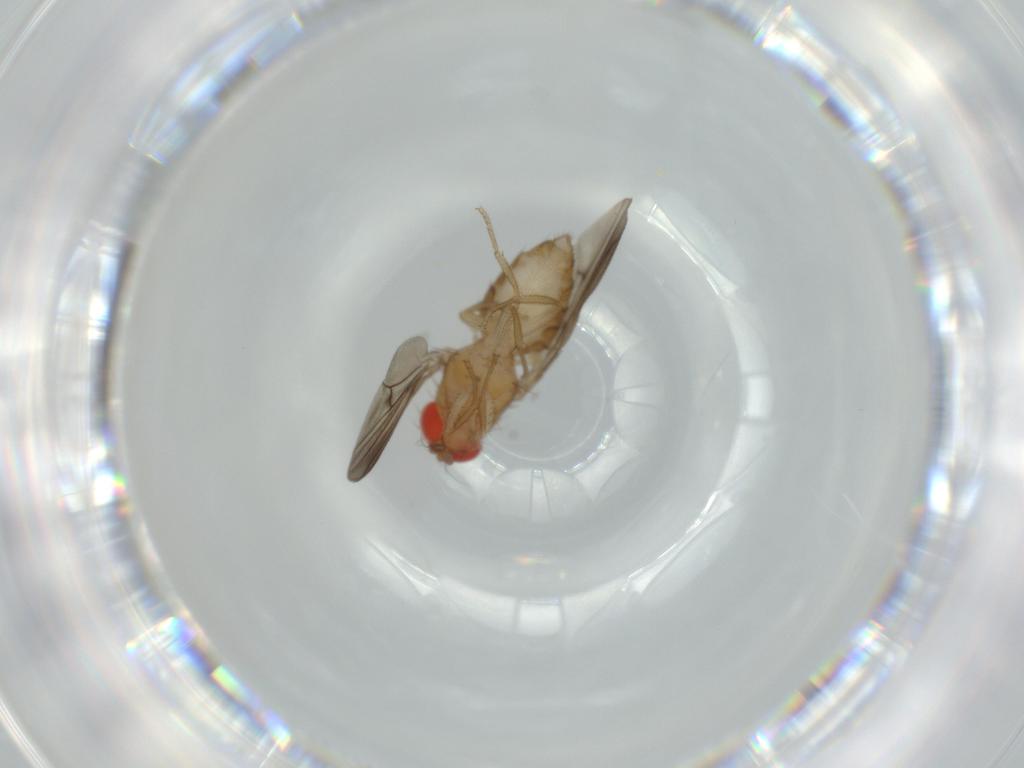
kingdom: Animalia
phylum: Arthropoda
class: Insecta
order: Diptera
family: Drosophilidae
